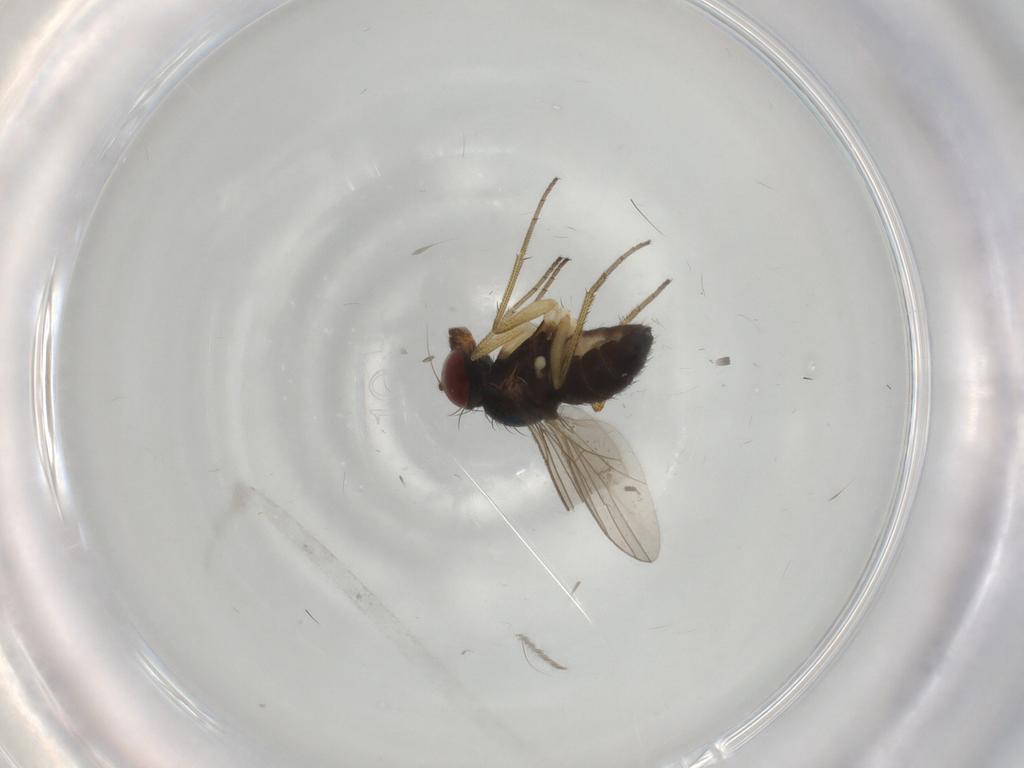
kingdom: Animalia
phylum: Arthropoda
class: Insecta
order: Diptera
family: Dolichopodidae
